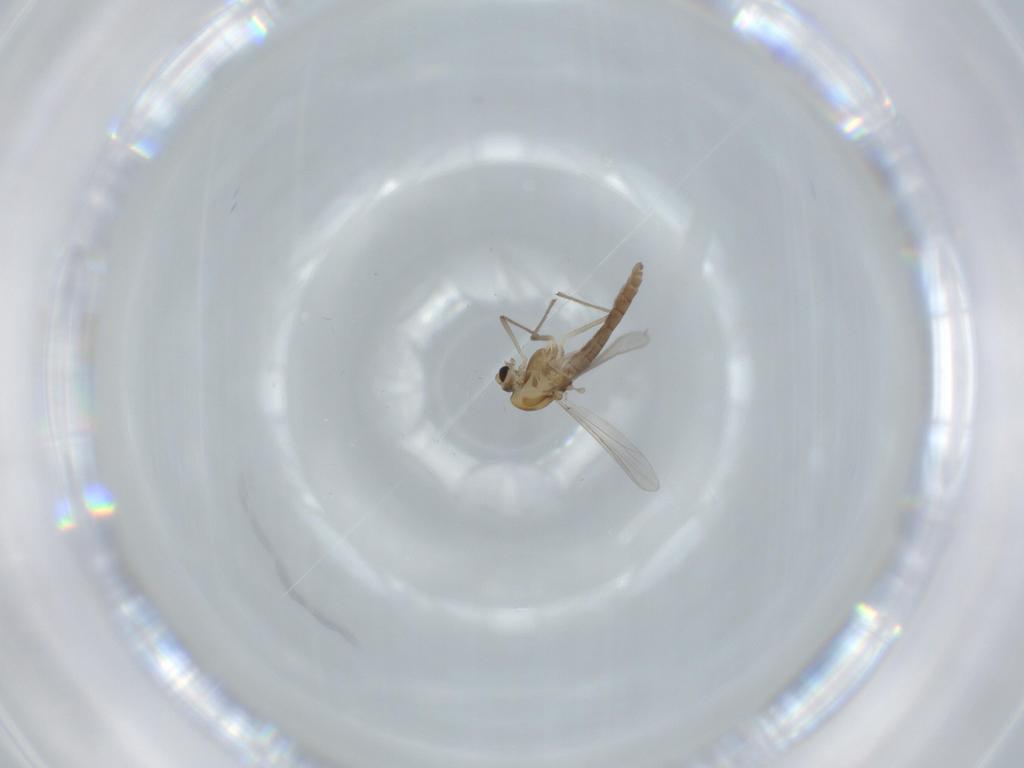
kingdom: Animalia
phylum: Arthropoda
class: Insecta
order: Diptera
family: Chironomidae
